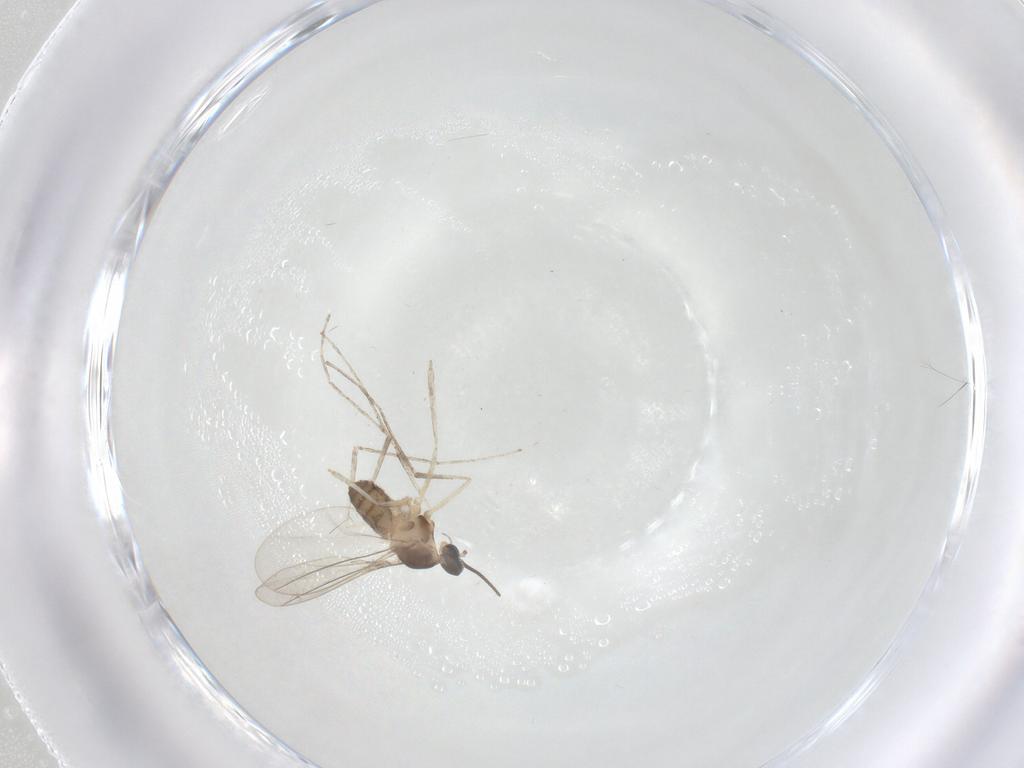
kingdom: Animalia
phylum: Arthropoda
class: Insecta
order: Diptera
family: Cecidomyiidae
